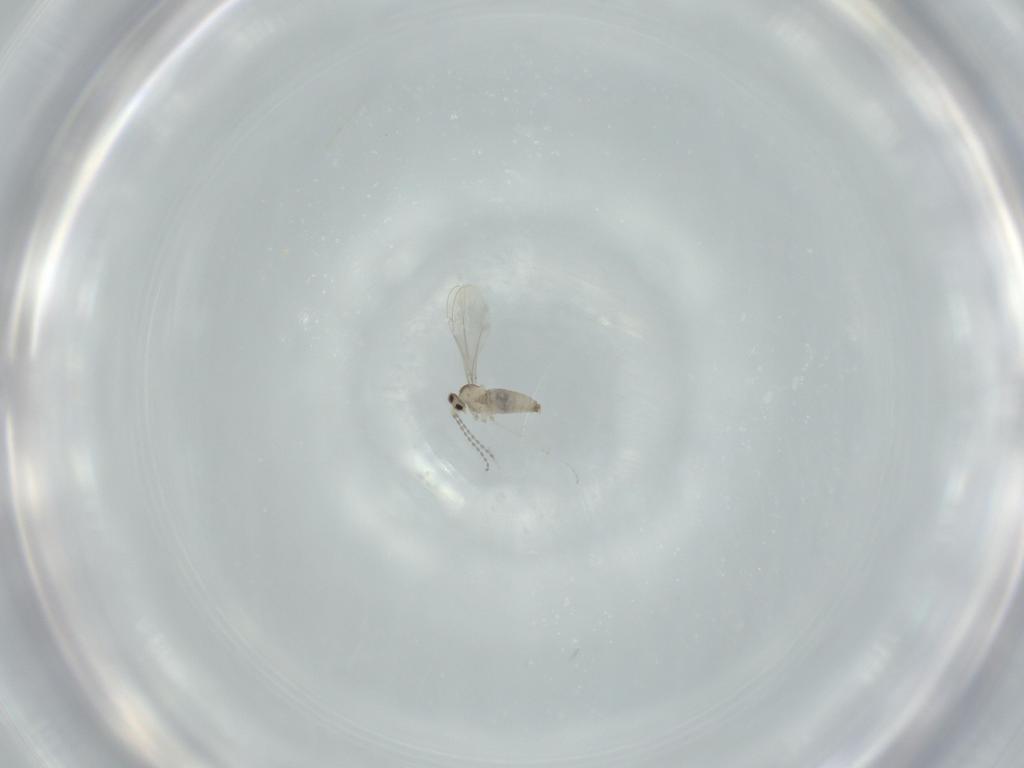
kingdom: Animalia
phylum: Arthropoda
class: Insecta
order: Diptera
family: Cecidomyiidae
